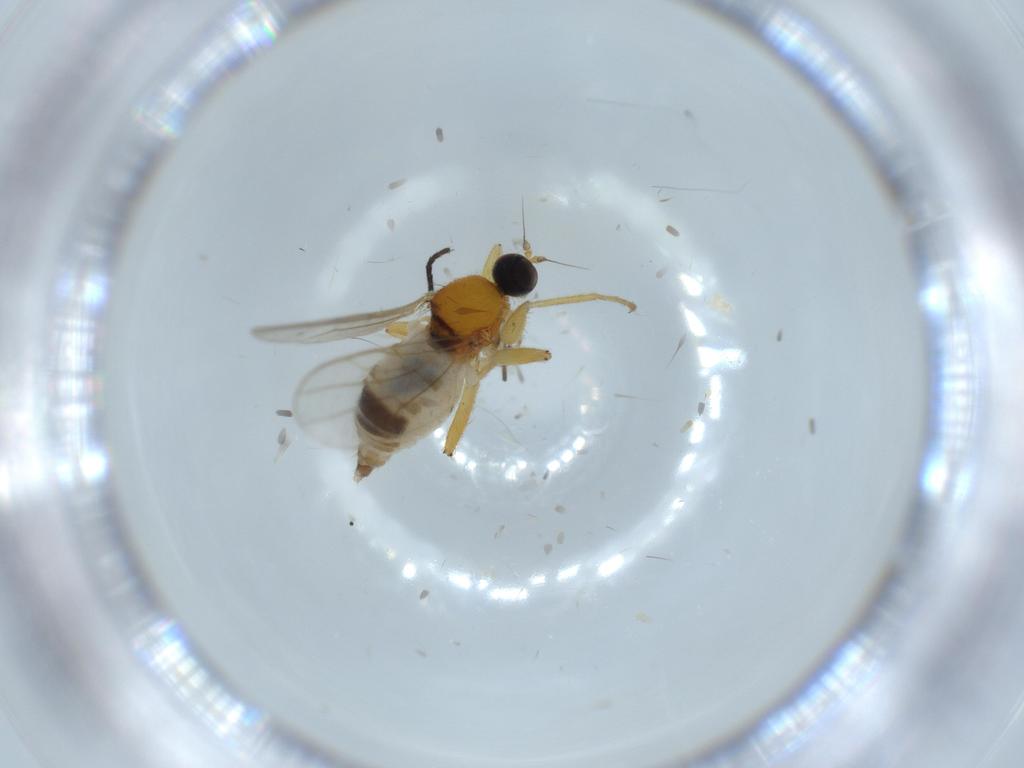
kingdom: Animalia
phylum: Arthropoda
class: Insecta
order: Diptera
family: Hybotidae
